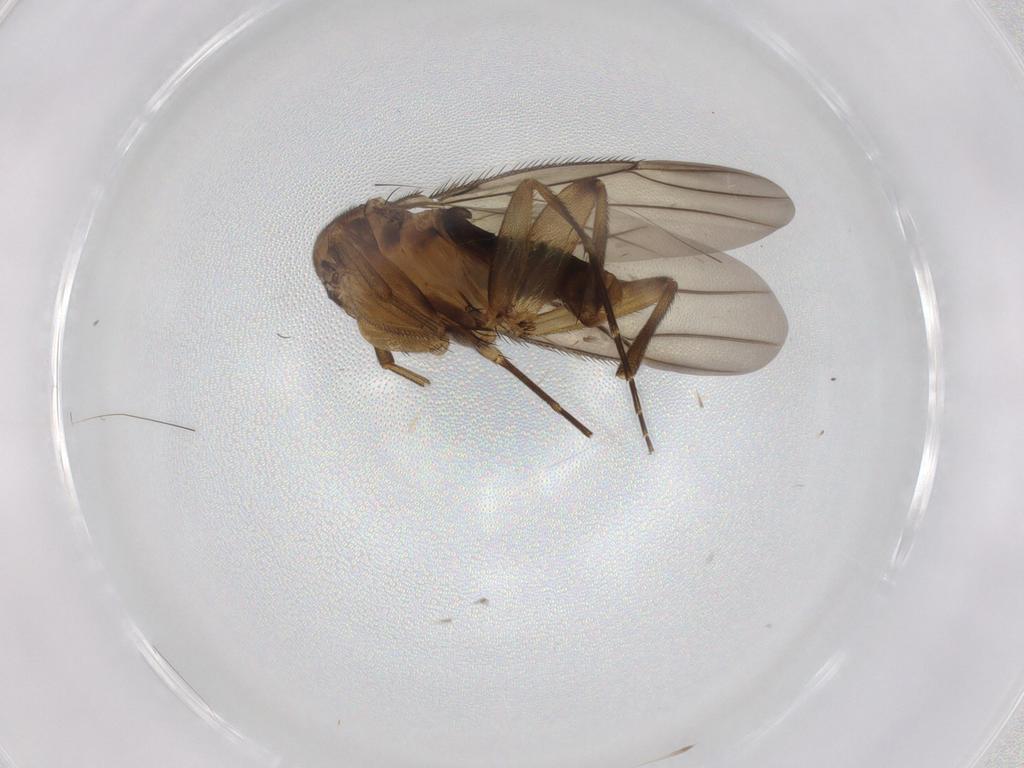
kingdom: Animalia
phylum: Arthropoda
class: Insecta
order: Diptera
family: Phoridae
